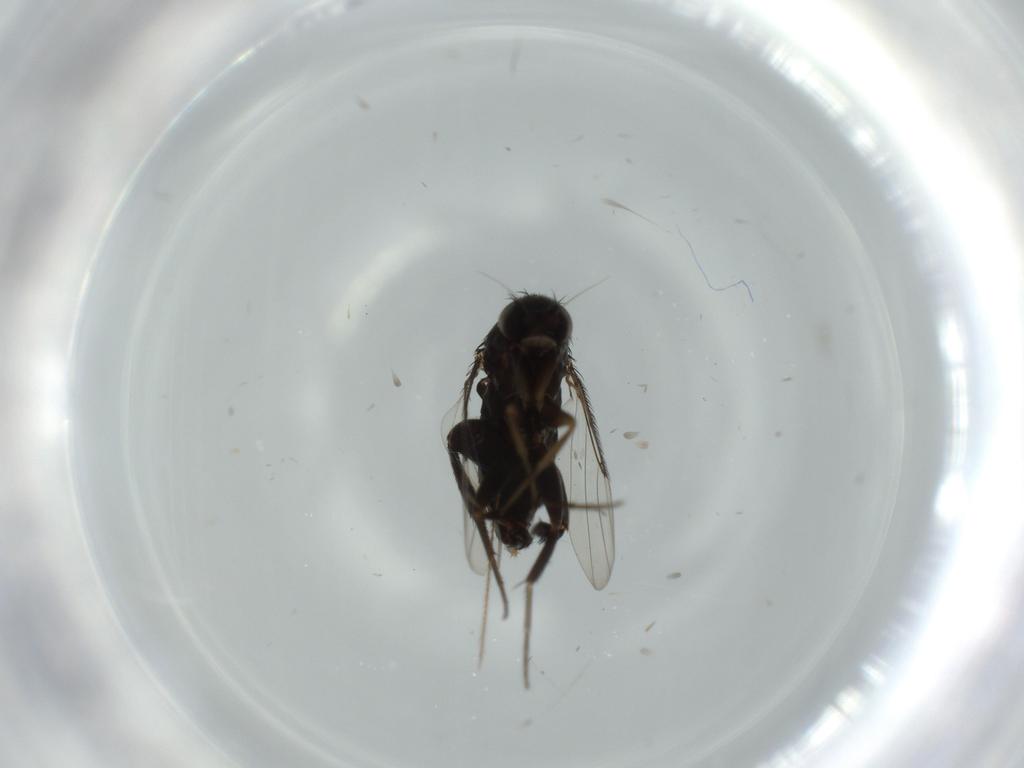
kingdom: Animalia
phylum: Arthropoda
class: Insecta
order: Diptera
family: Phoridae
